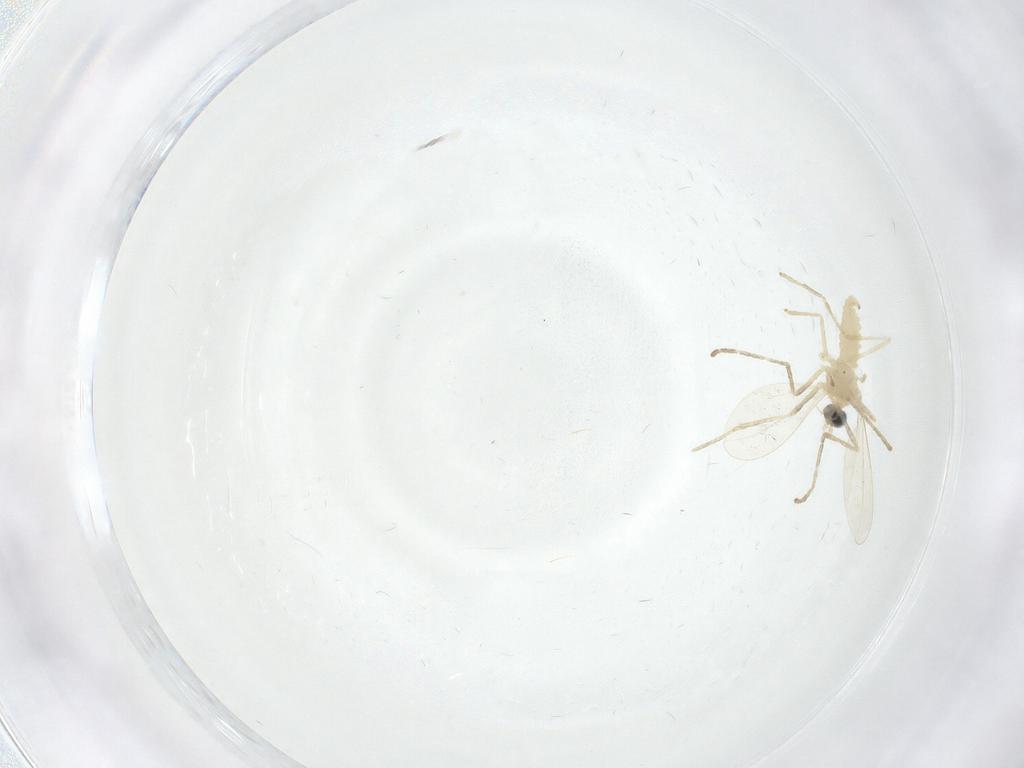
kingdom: Animalia
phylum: Arthropoda
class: Insecta
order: Diptera
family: Cecidomyiidae
